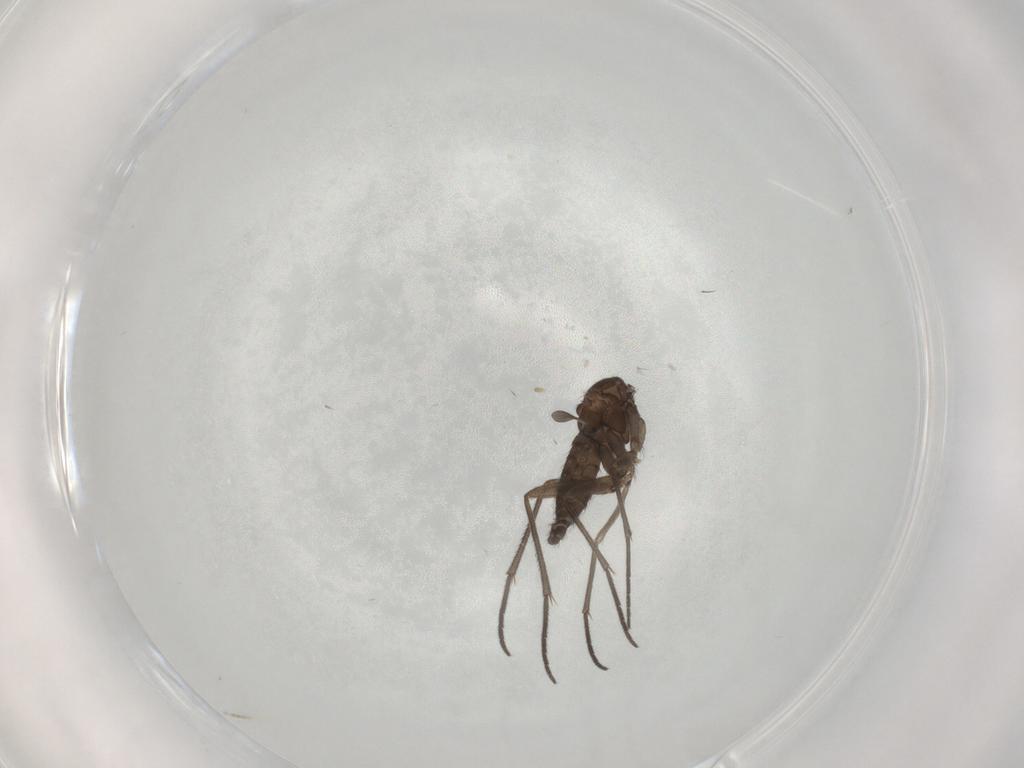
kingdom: Animalia
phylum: Arthropoda
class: Insecta
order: Diptera
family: Sciaridae
